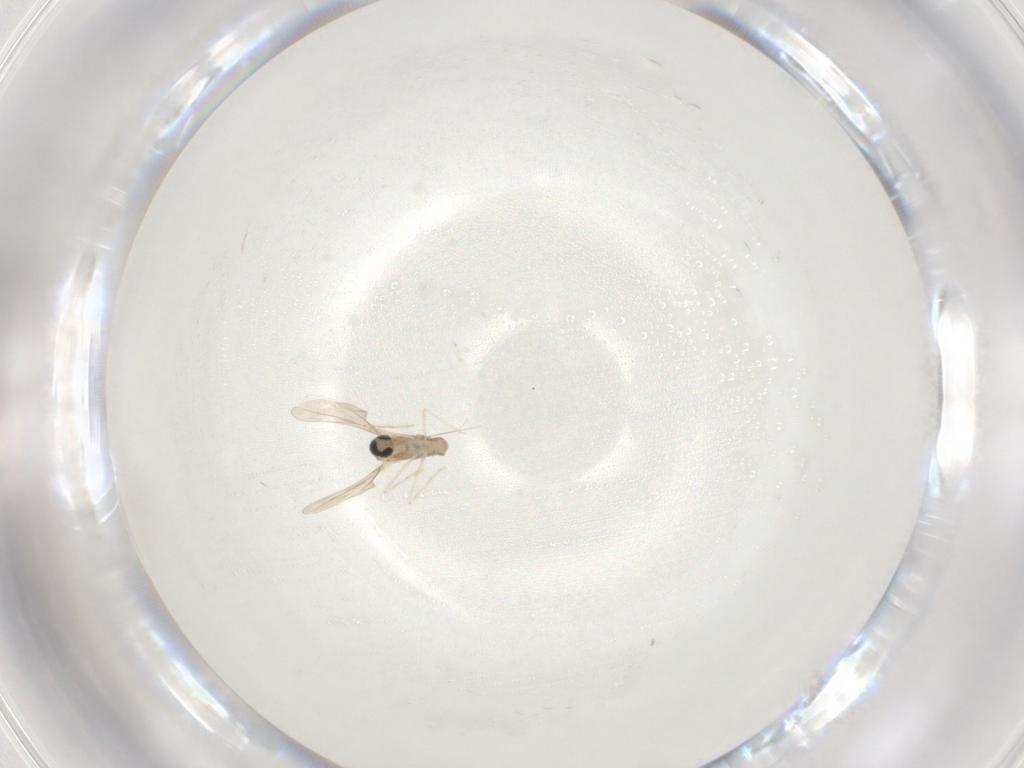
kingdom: Animalia
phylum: Arthropoda
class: Insecta
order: Diptera
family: Cecidomyiidae
